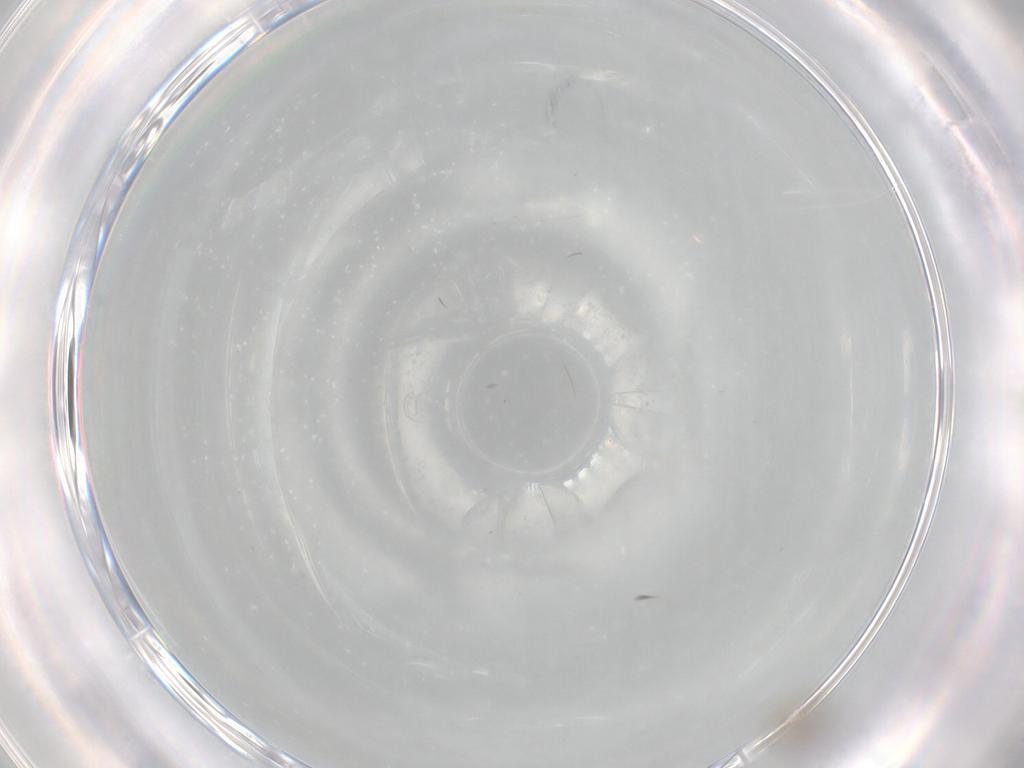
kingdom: Animalia
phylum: Arthropoda
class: Insecta
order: Diptera
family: Chironomidae
